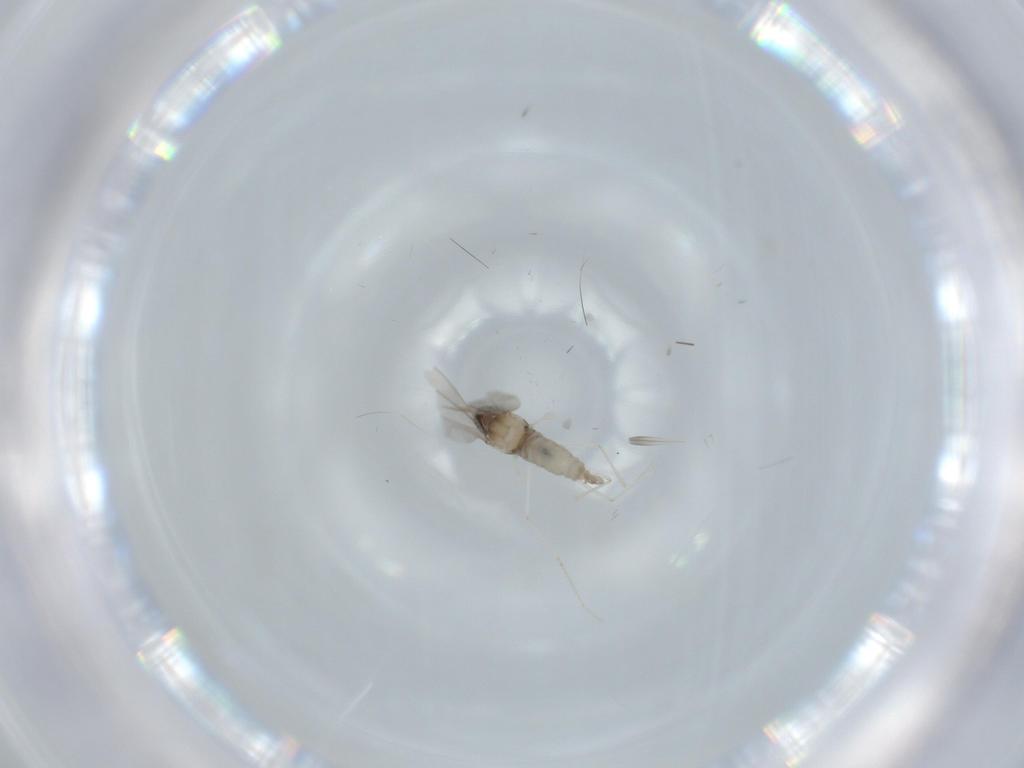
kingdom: Animalia
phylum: Arthropoda
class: Insecta
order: Diptera
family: Cecidomyiidae
